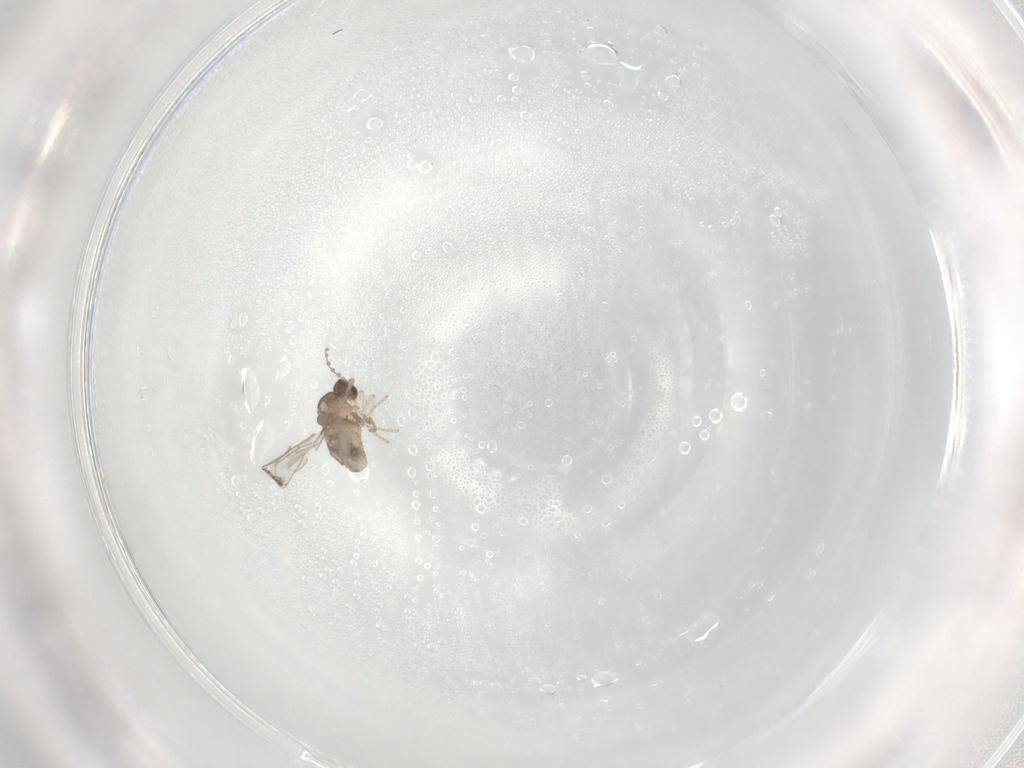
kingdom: Animalia
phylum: Arthropoda
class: Insecta
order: Diptera
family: Cecidomyiidae
